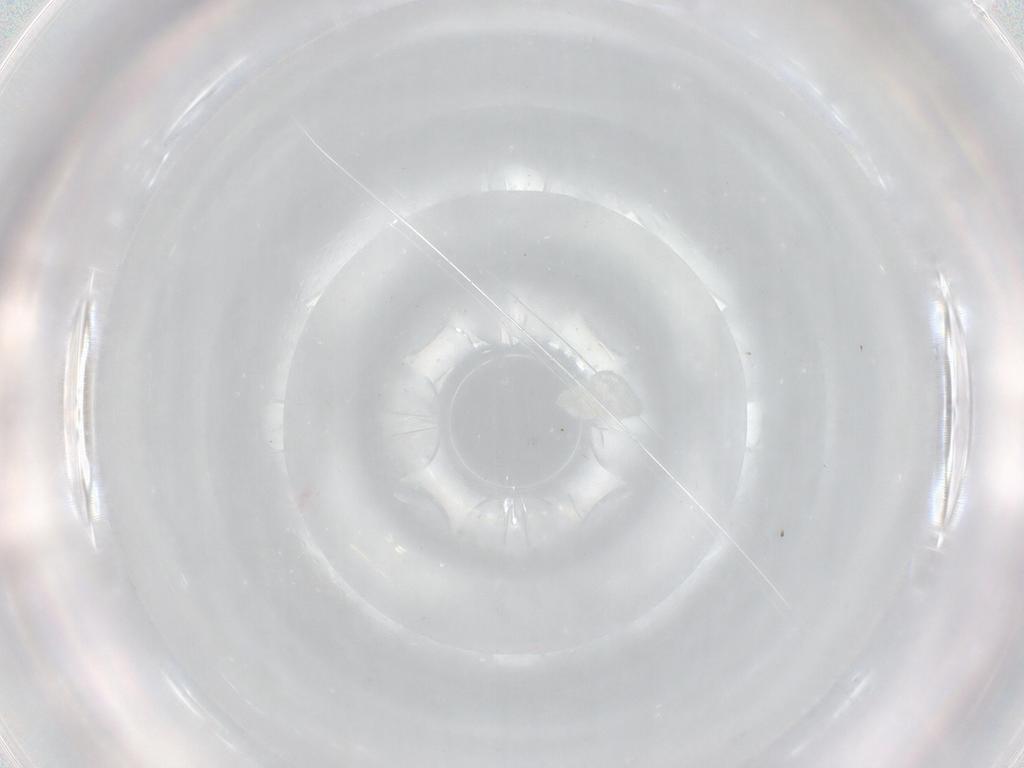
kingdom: Animalia
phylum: Arthropoda
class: Insecta
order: Diptera
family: Phoridae
